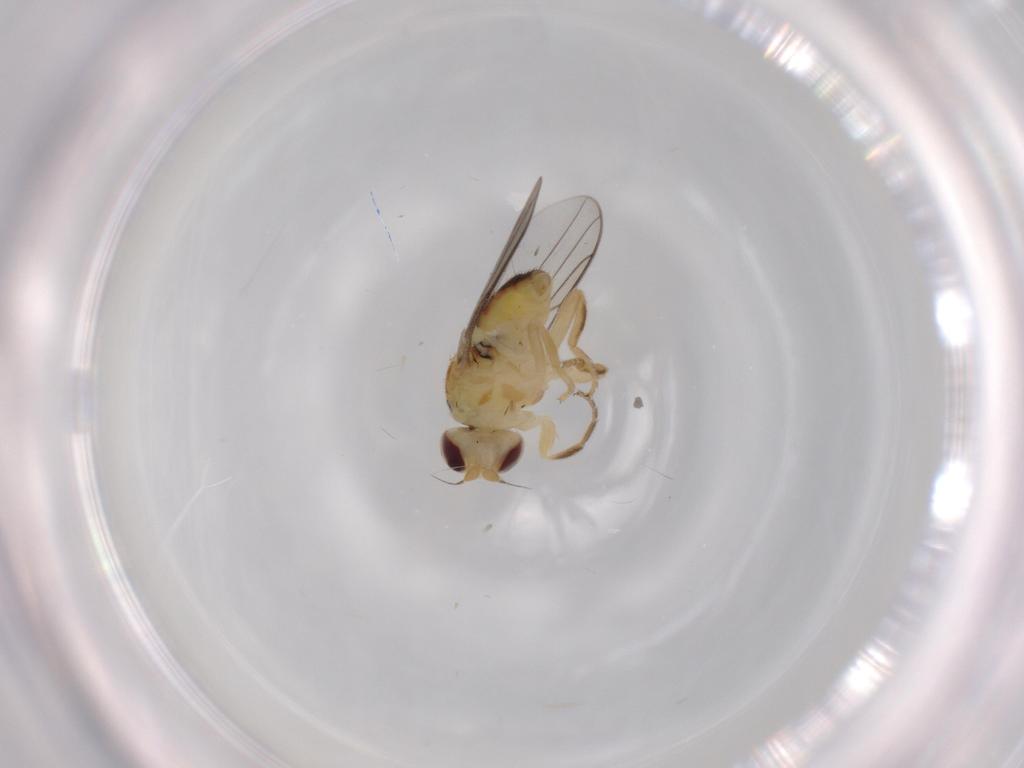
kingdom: Animalia
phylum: Arthropoda
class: Insecta
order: Diptera
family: Chloropidae
